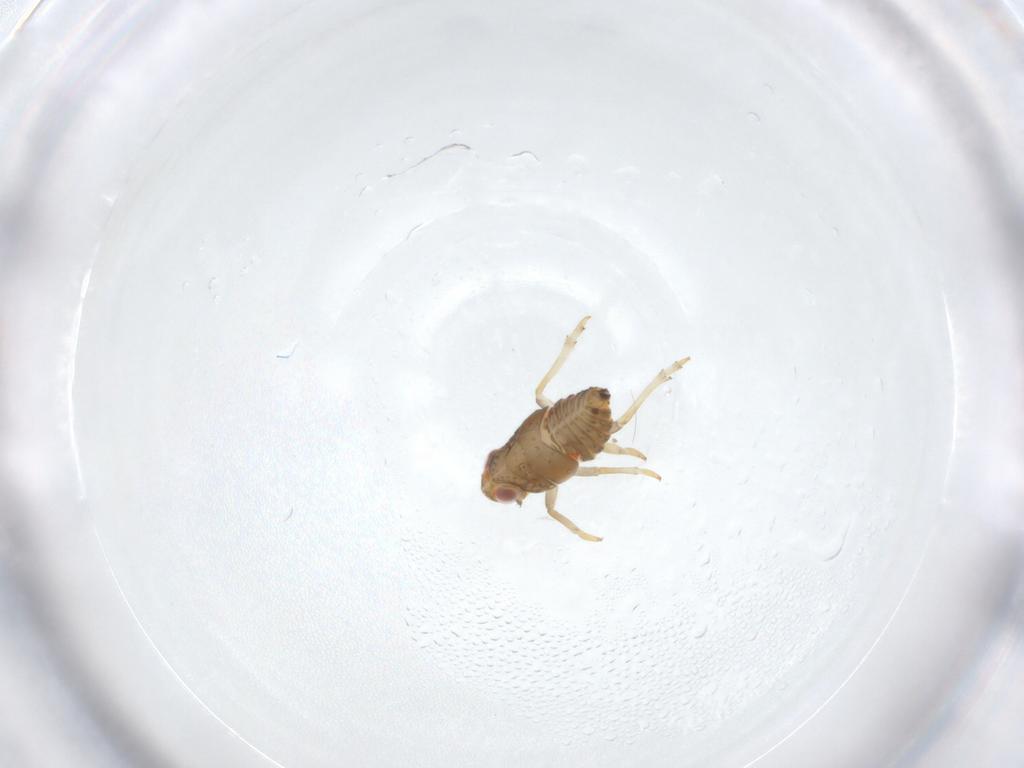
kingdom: Animalia
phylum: Arthropoda
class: Insecta
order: Hemiptera
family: Issidae
